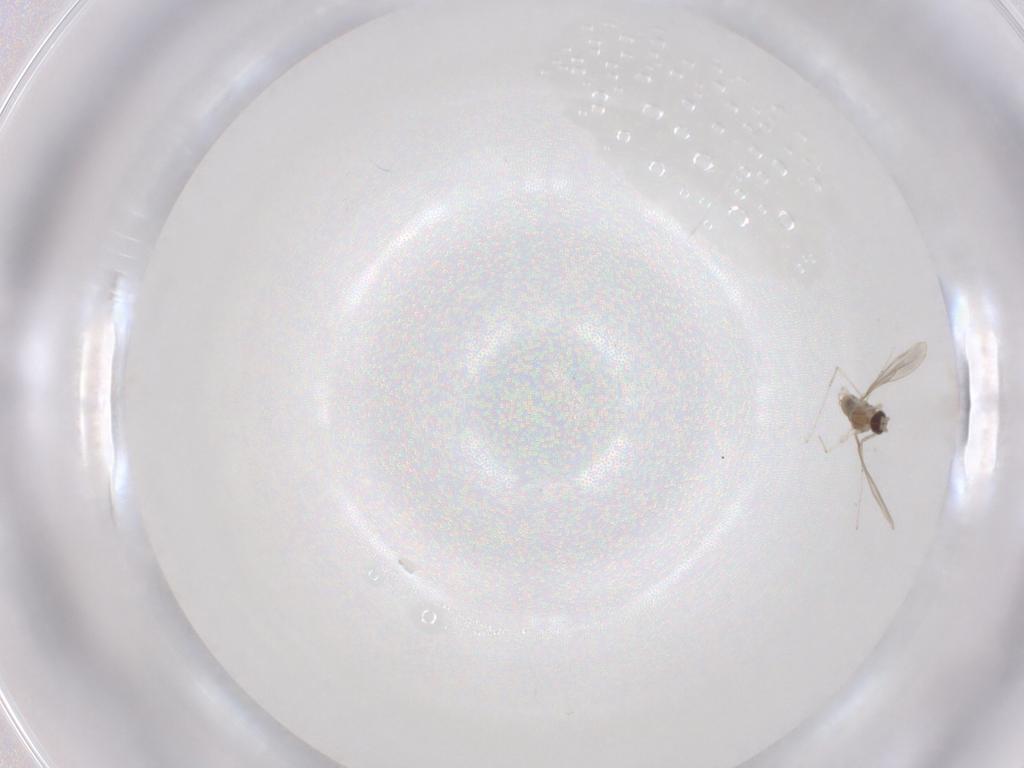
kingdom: Animalia
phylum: Arthropoda
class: Insecta
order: Diptera
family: Cecidomyiidae
